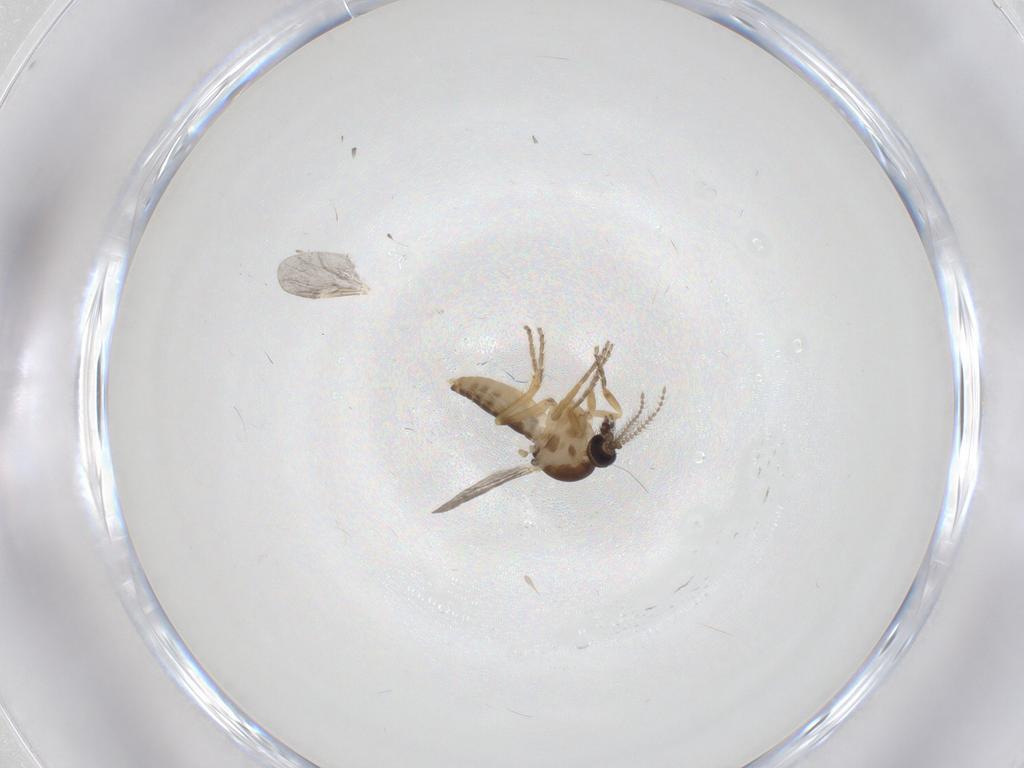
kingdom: Animalia
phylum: Arthropoda
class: Insecta
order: Diptera
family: Ceratopogonidae
